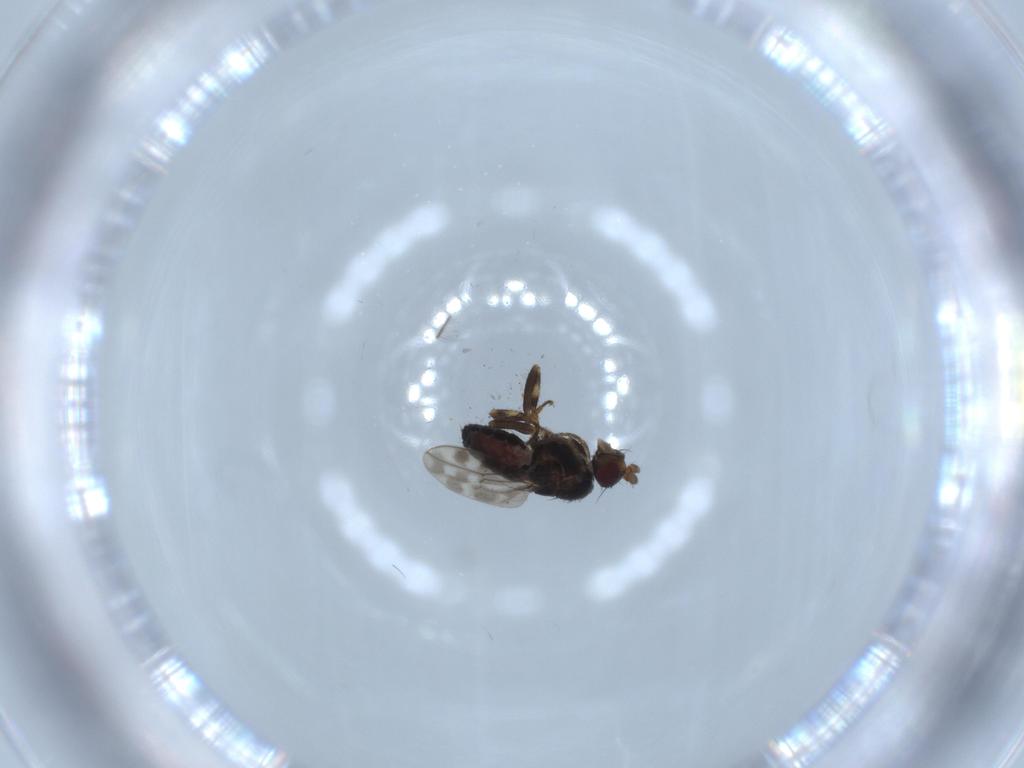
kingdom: Animalia
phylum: Arthropoda
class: Insecta
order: Diptera
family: Sphaeroceridae
